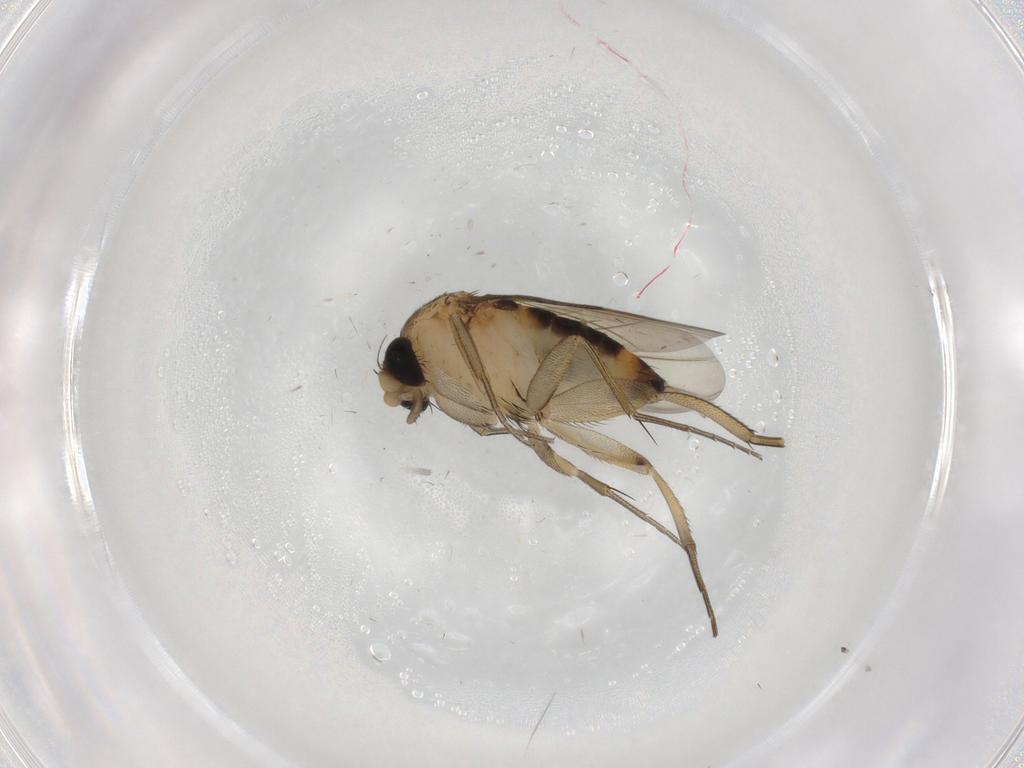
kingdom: Animalia
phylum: Arthropoda
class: Insecta
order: Diptera
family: Phoridae
